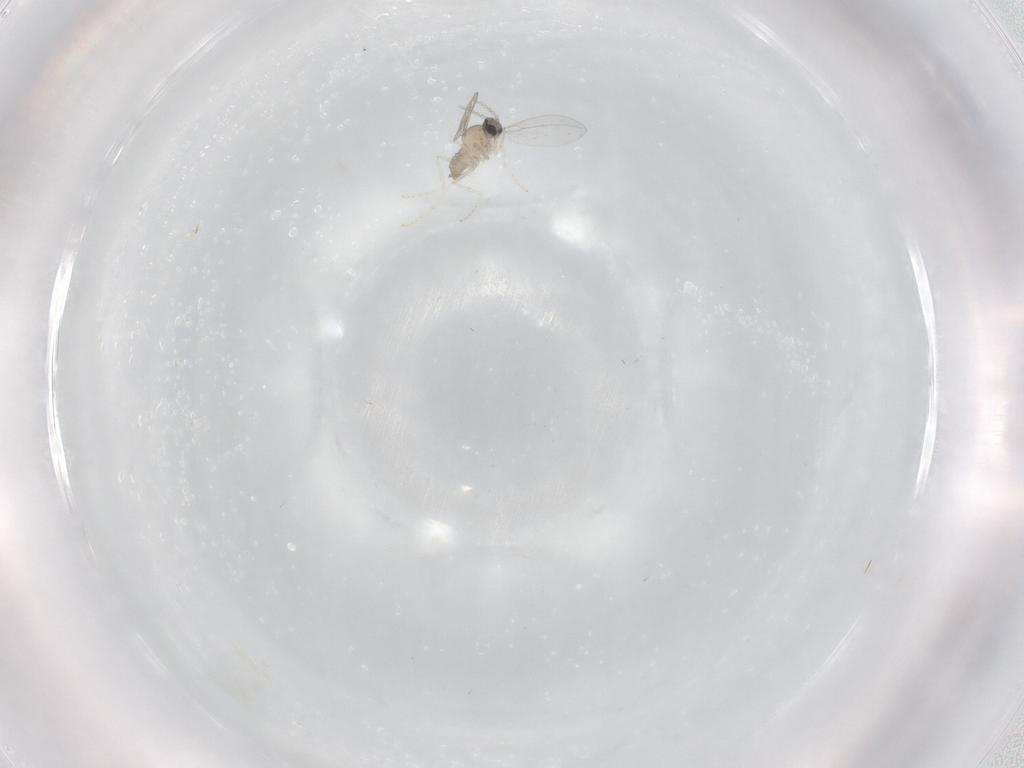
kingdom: Animalia
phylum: Arthropoda
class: Insecta
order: Diptera
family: Cecidomyiidae
